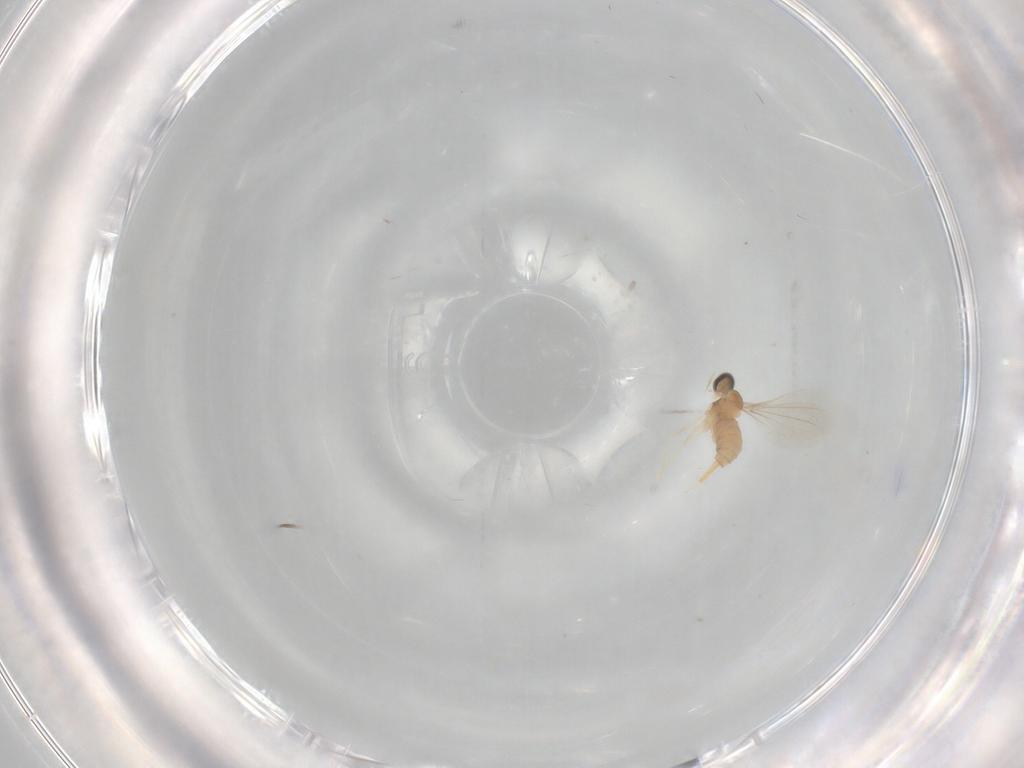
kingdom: Animalia
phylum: Arthropoda
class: Insecta
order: Diptera
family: Cecidomyiidae
